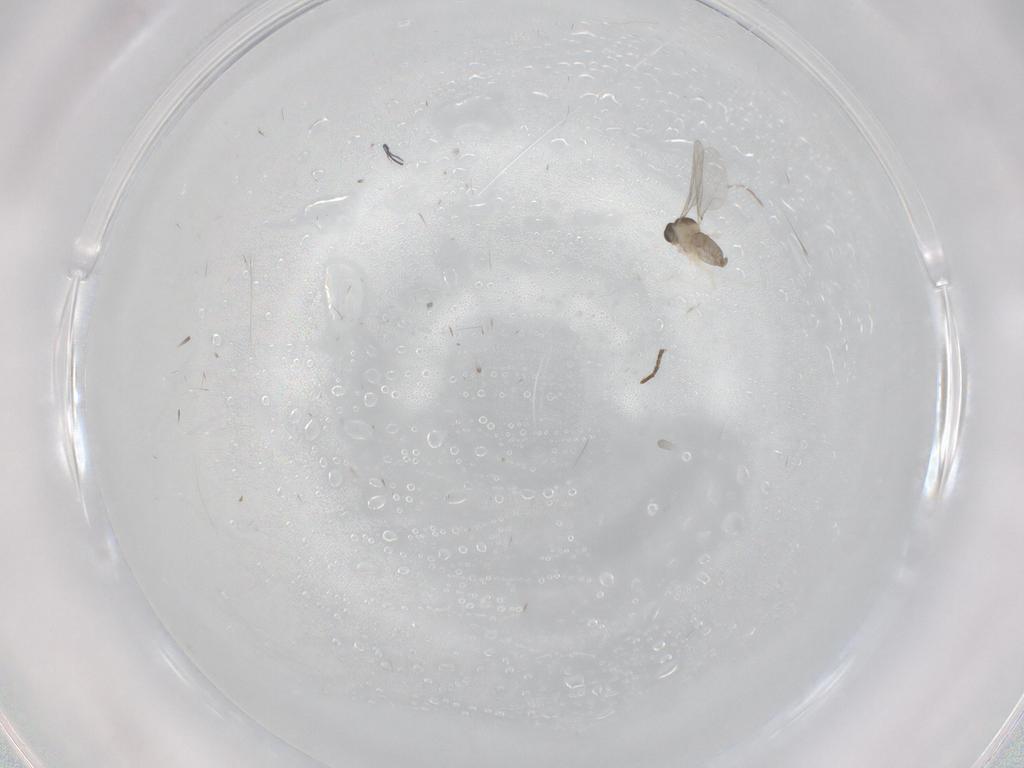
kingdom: Animalia
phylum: Arthropoda
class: Insecta
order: Diptera
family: Cecidomyiidae
